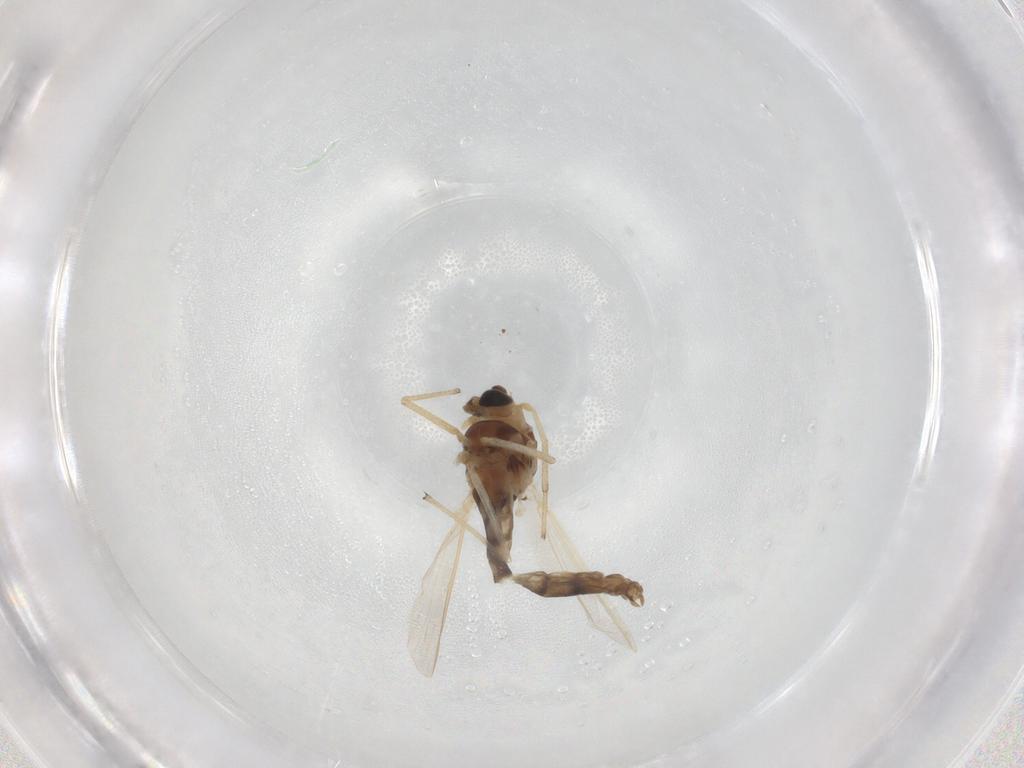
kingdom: Animalia
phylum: Arthropoda
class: Insecta
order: Diptera
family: Chironomidae
